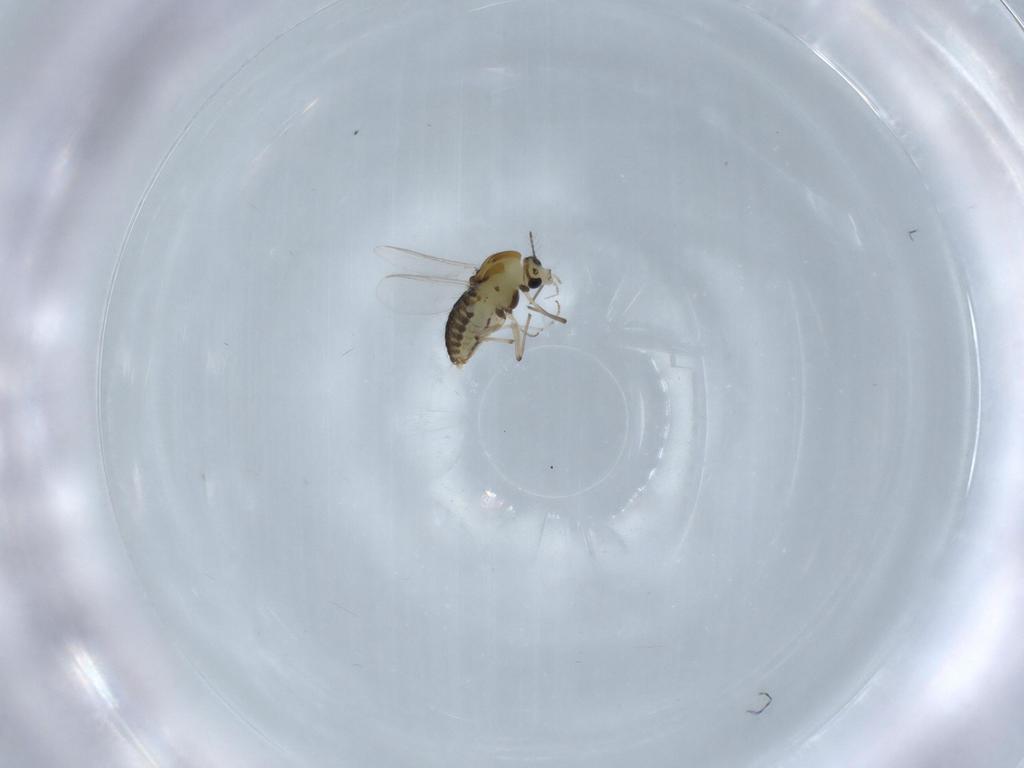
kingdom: Animalia
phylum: Arthropoda
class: Insecta
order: Diptera
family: Chironomidae
